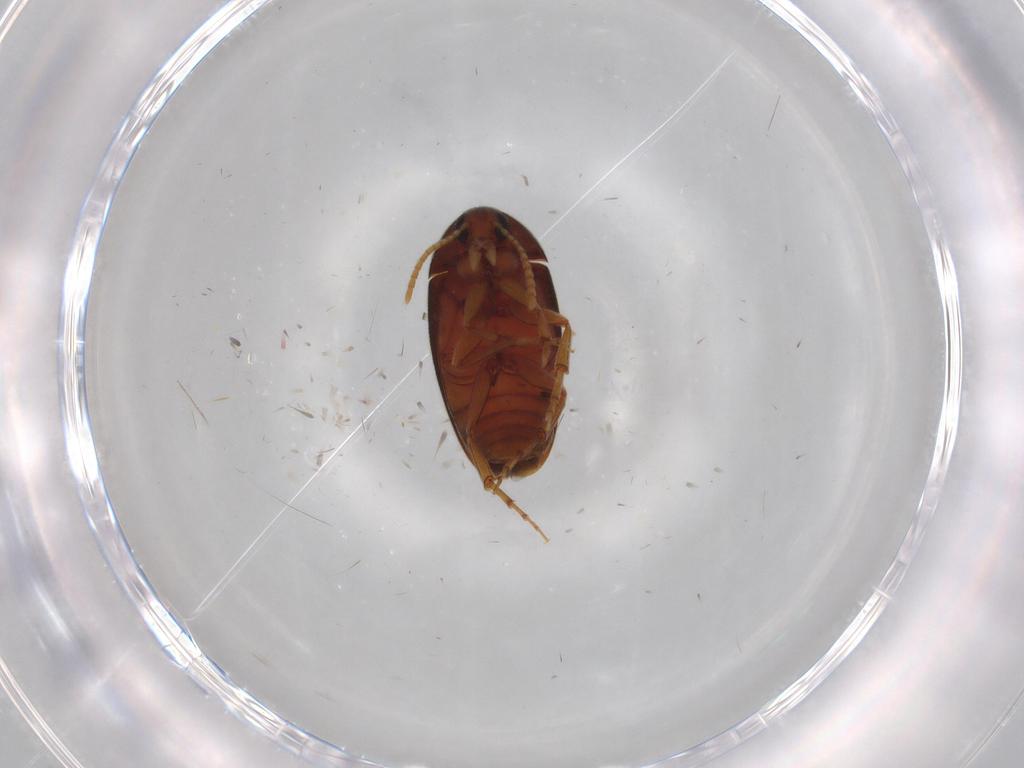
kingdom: Animalia
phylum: Arthropoda
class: Insecta
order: Coleoptera
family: Scraptiidae
